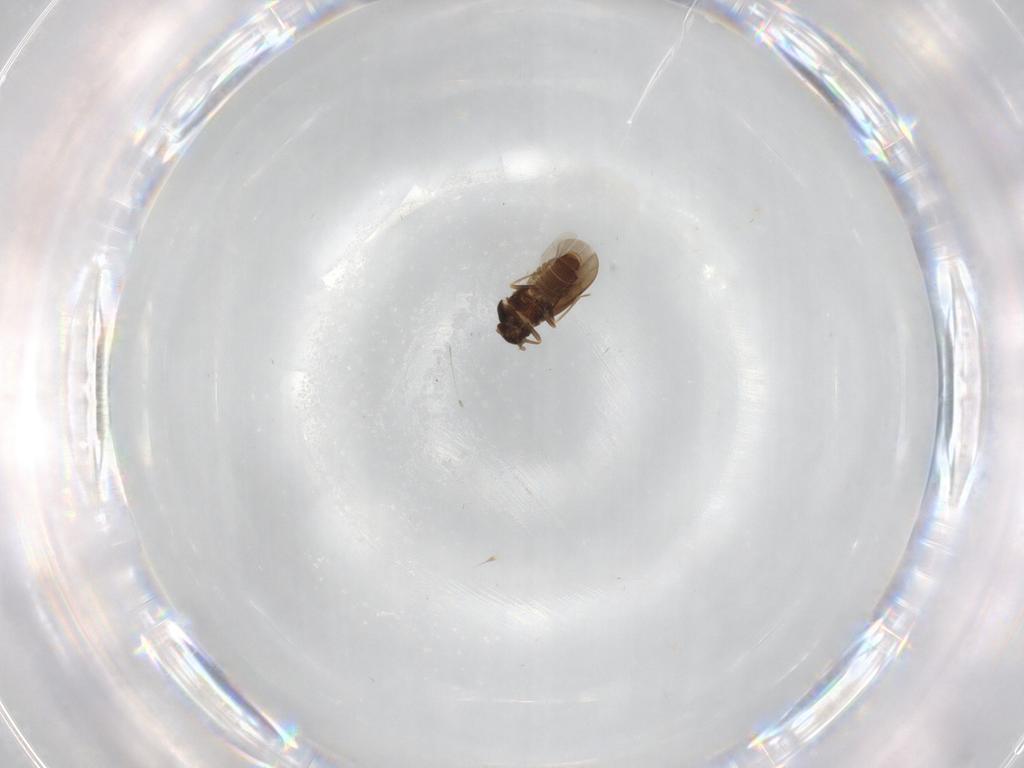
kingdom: Animalia
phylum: Arthropoda
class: Insecta
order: Hemiptera
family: Schizopteridae
